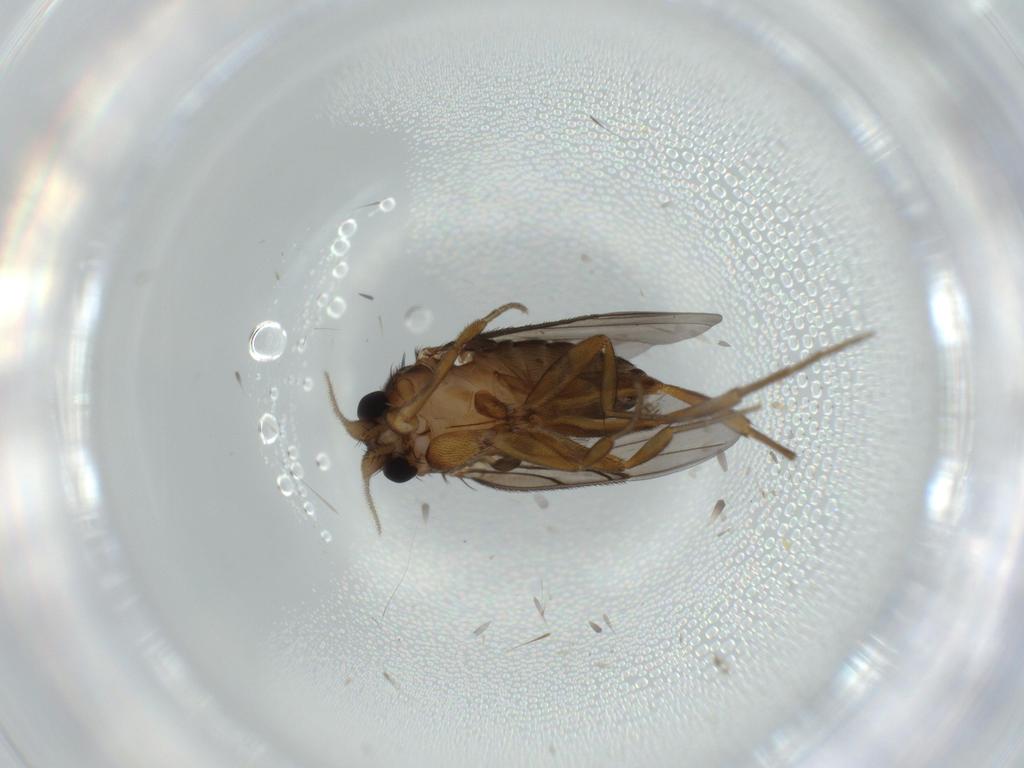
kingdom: Animalia
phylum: Arthropoda
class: Insecta
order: Diptera
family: Phoridae
